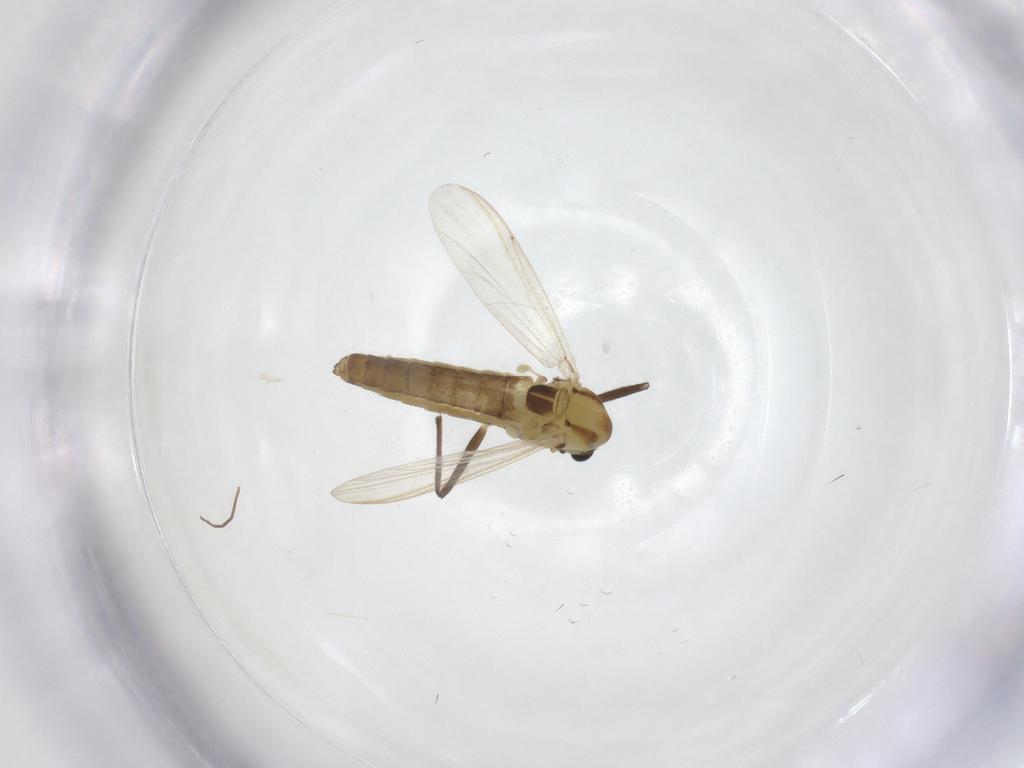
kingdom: Animalia
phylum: Arthropoda
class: Insecta
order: Diptera
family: Chironomidae
